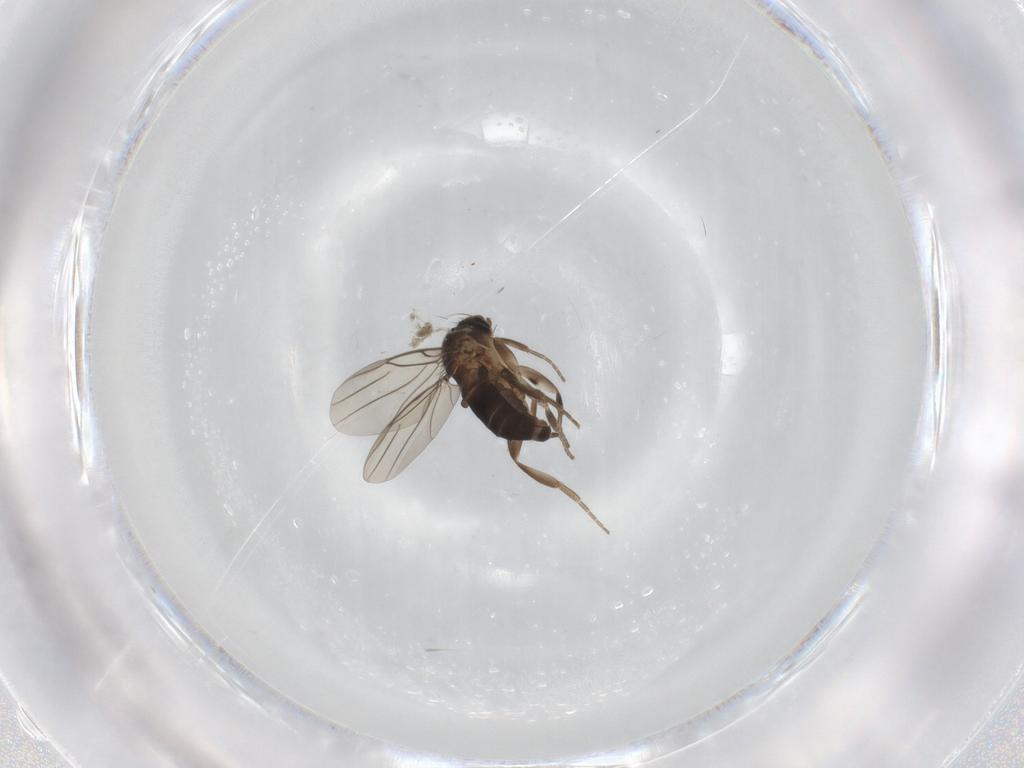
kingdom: Animalia
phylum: Arthropoda
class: Insecta
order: Diptera
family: Phoridae
